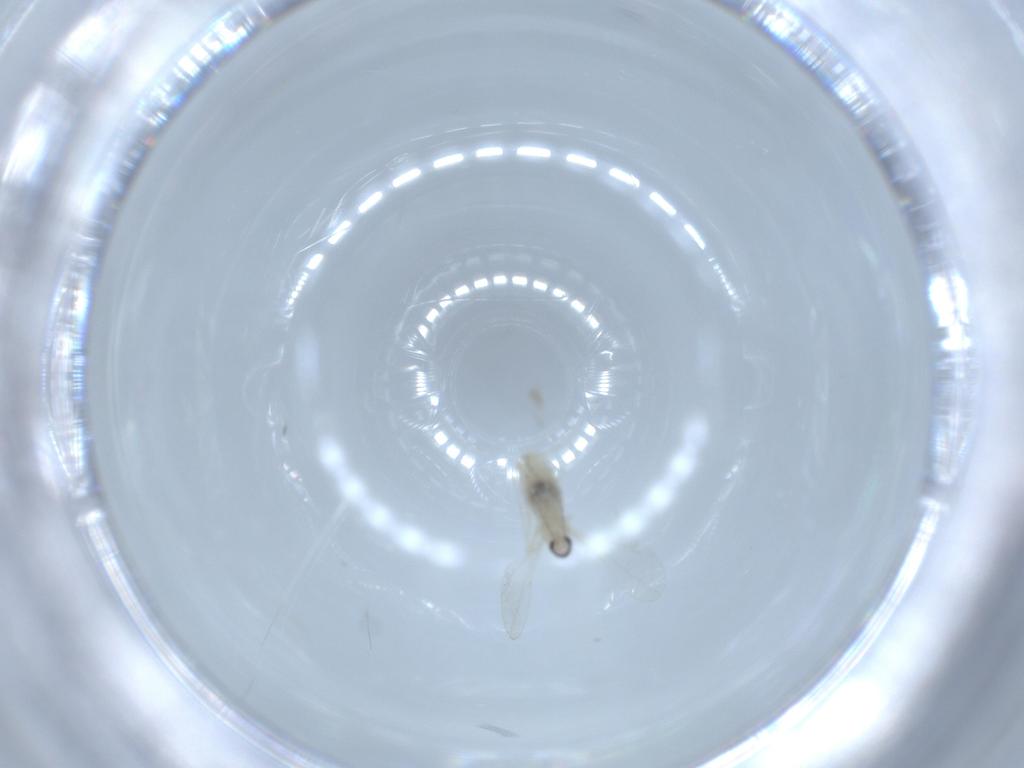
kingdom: Animalia
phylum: Arthropoda
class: Insecta
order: Diptera
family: Cecidomyiidae
